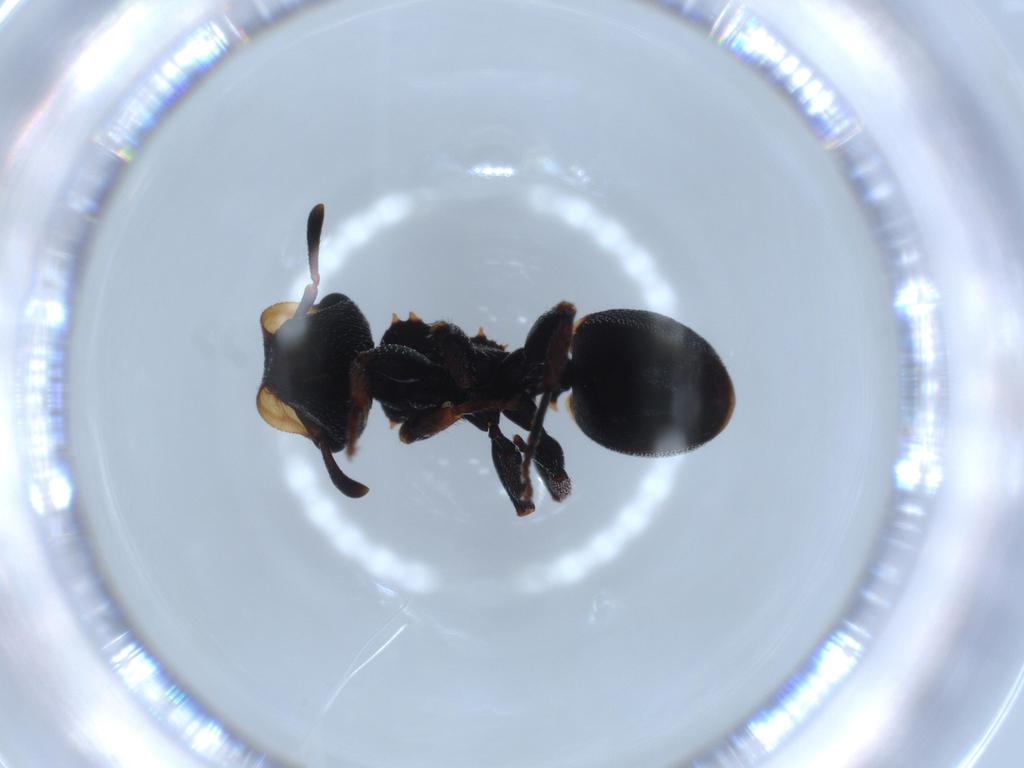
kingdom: Animalia
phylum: Arthropoda
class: Insecta
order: Hymenoptera
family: Formicidae
